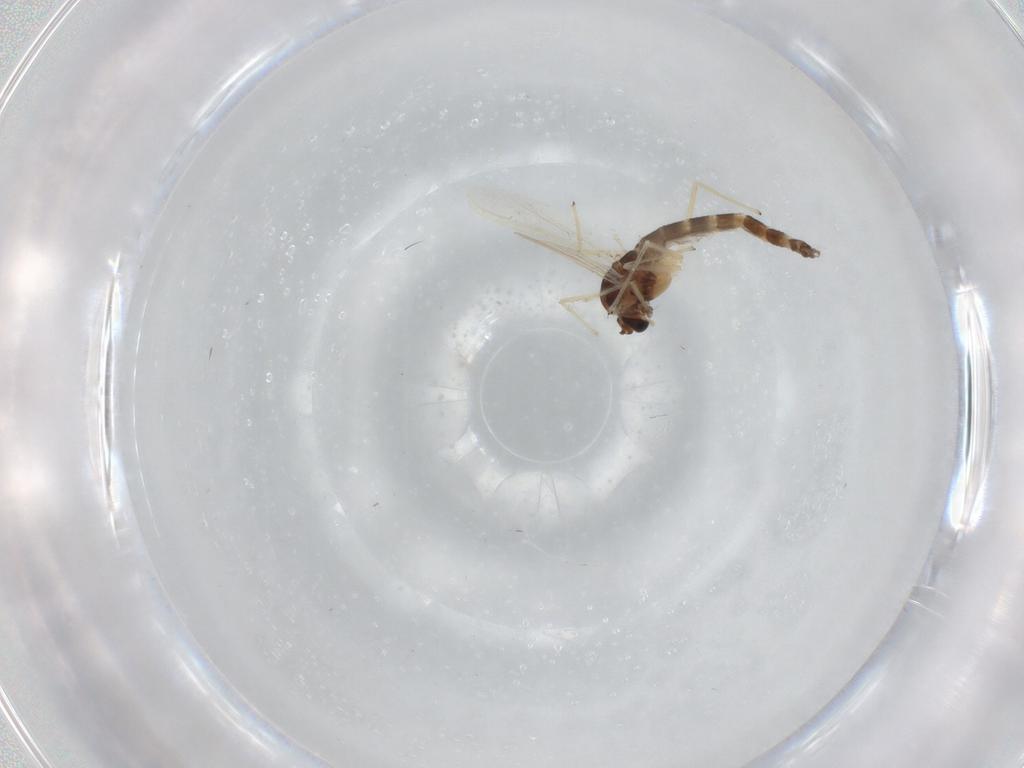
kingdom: Animalia
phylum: Arthropoda
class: Insecta
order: Diptera
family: Chironomidae
